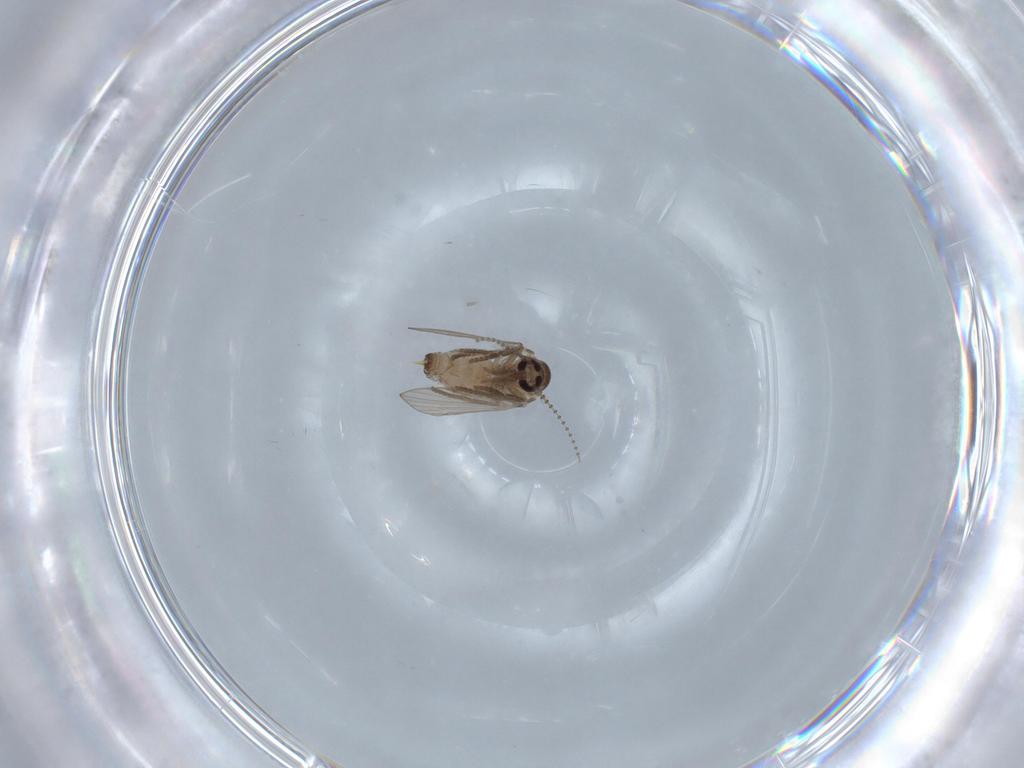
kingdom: Animalia
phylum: Arthropoda
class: Insecta
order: Diptera
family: Psychodidae
